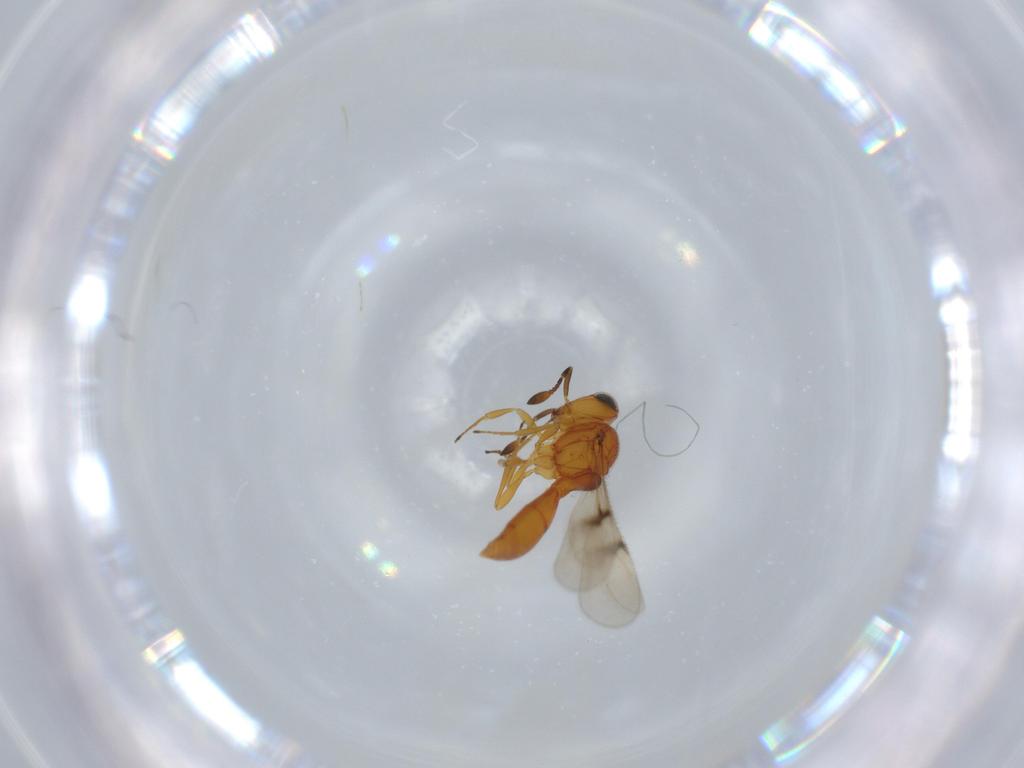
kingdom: Animalia
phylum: Arthropoda
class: Insecta
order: Hymenoptera
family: Scelionidae
